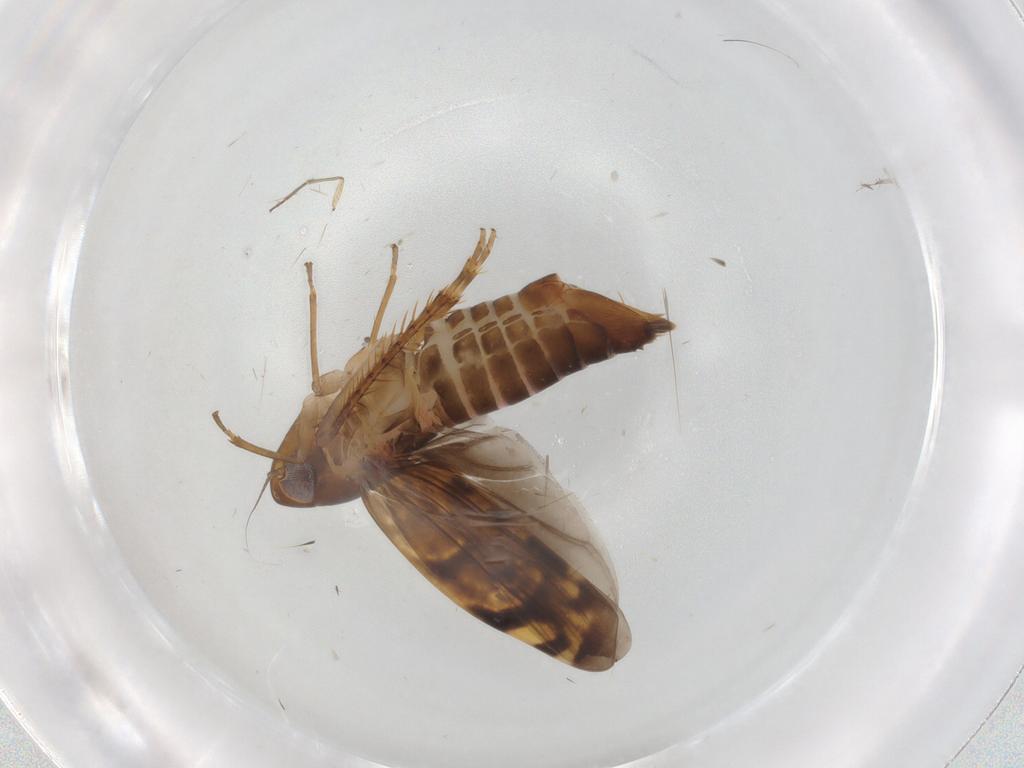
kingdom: Animalia
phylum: Arthropoda
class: Insecta
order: Hemiptera
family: Cicadellidae
